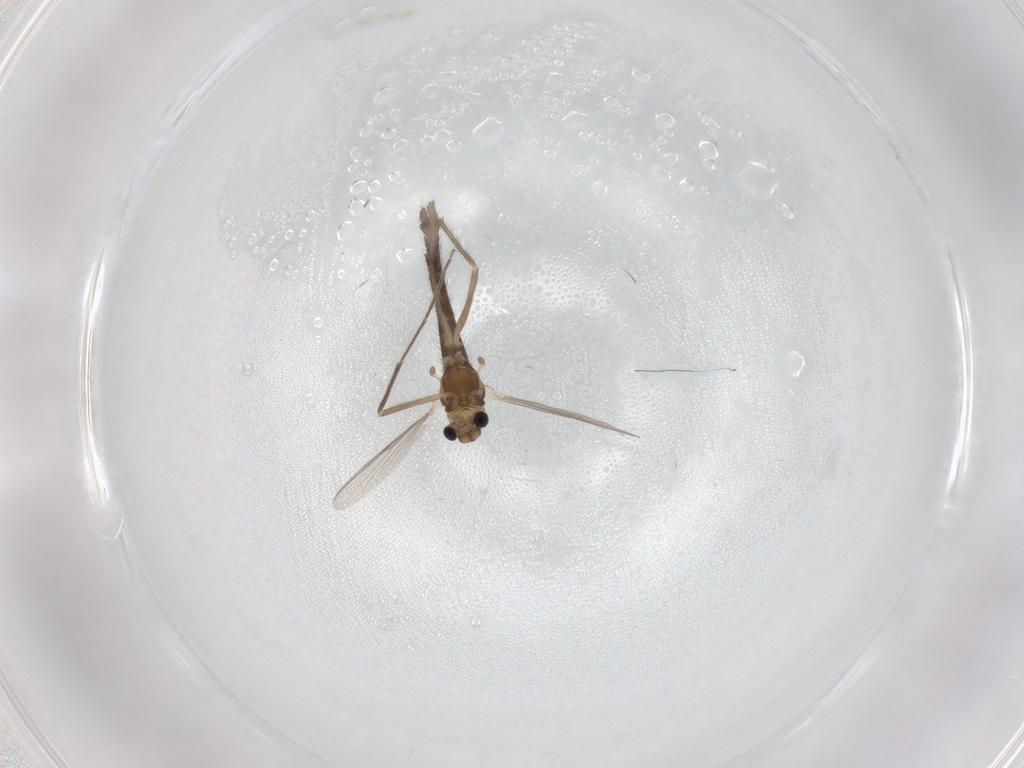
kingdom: Animalia
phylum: Arthropoda
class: Insecta
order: Diptera
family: Chironomidae
